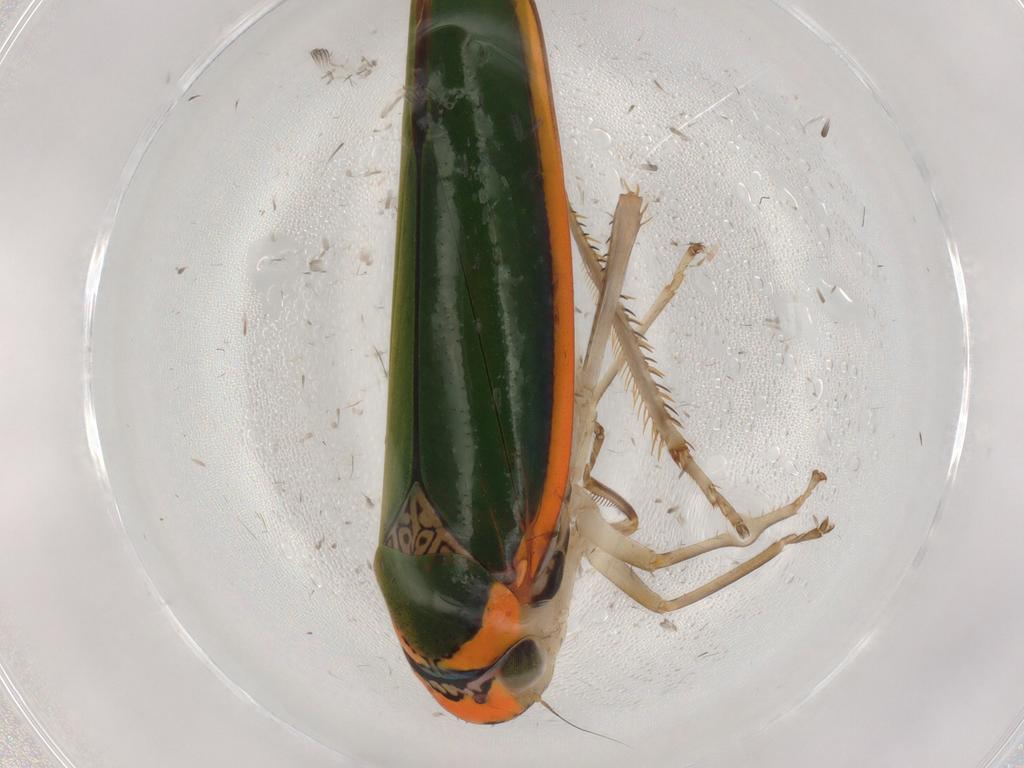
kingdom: Animalia
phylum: Arthropoda
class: Insecta
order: Hemiptera
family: Cicadellidae
